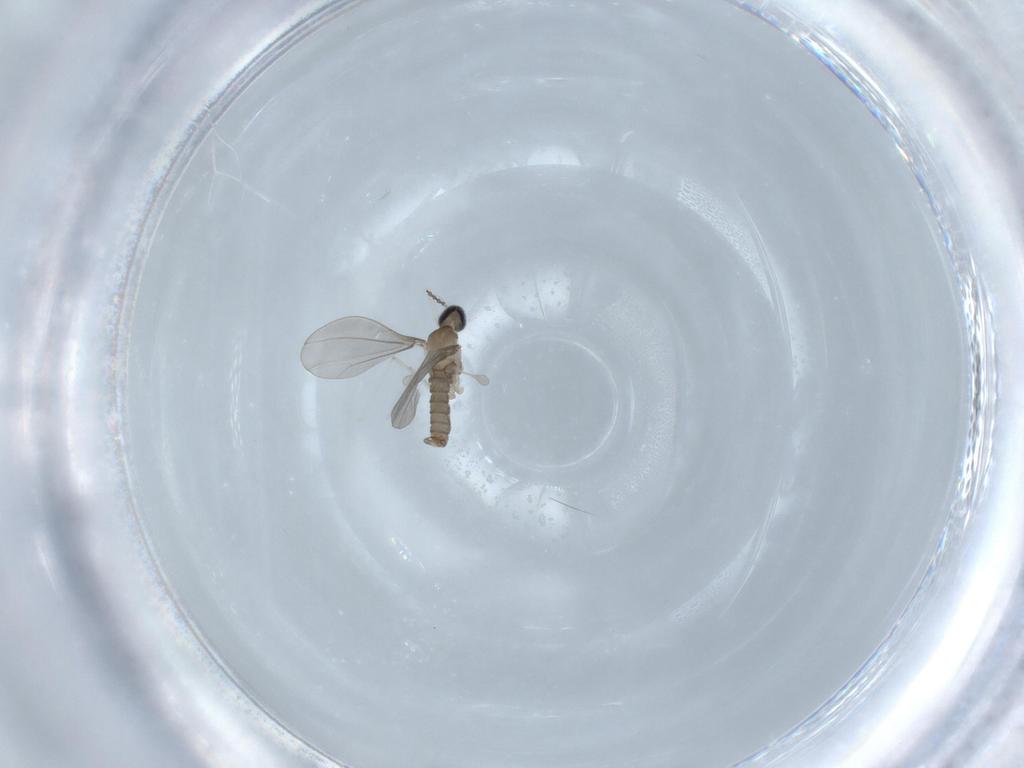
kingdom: Animalia
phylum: Arthropoda
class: Insecta
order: Diptera
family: Cecidomyiidae
